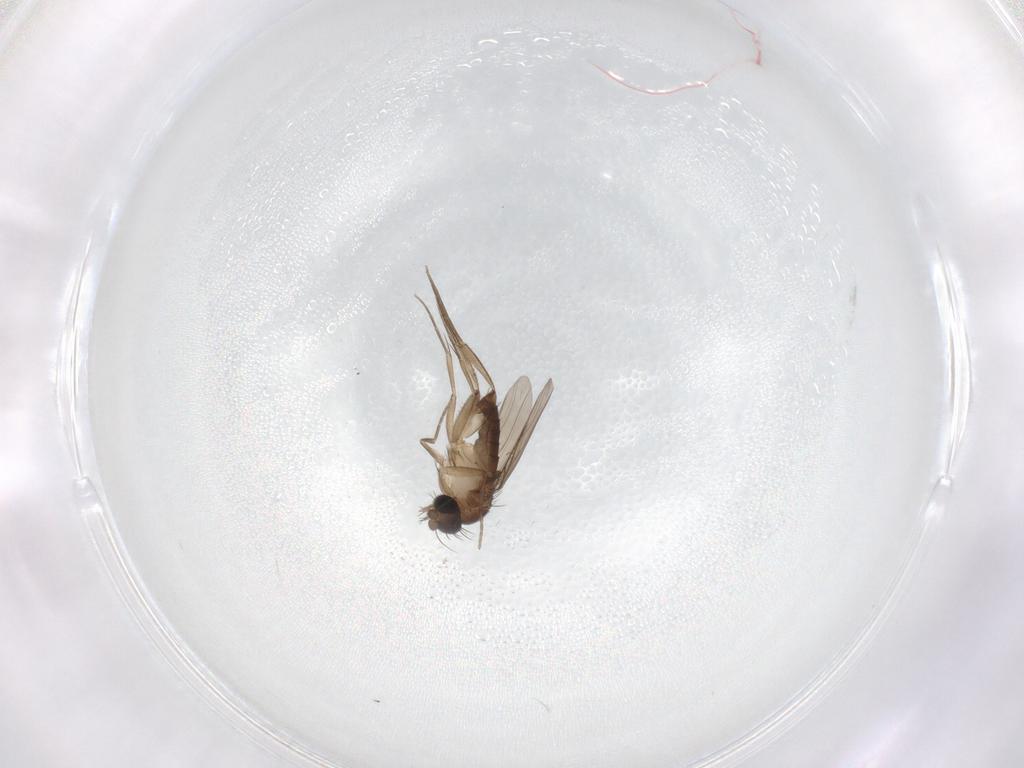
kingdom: Animalia
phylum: Arthropoda
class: Insecta
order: Diptera
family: Phoridae
